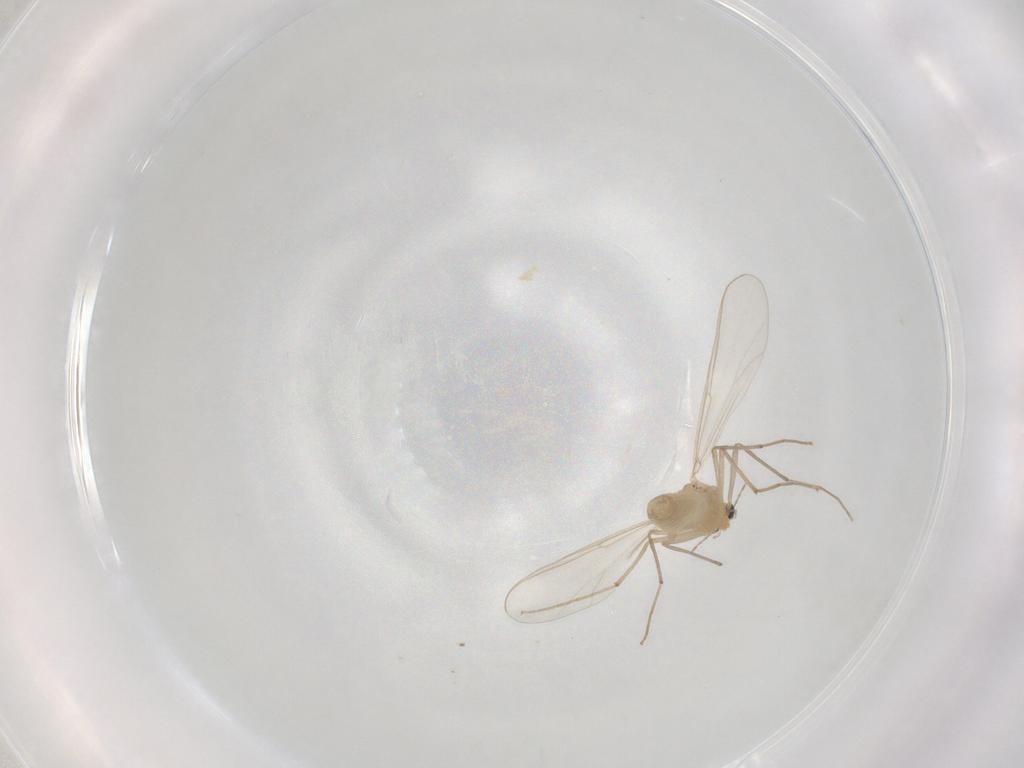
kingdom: Animalia
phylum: Arthropoda
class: Insecta
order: Diptera
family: Chironomidae
